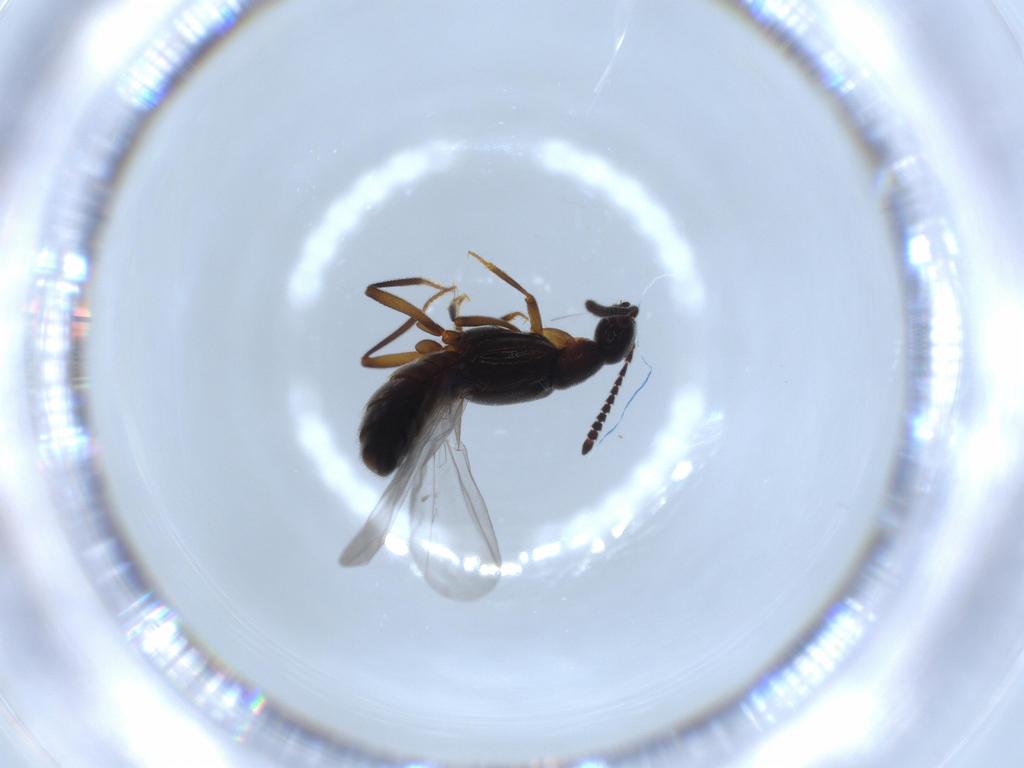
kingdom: Animalia
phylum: Arthropoda
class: Insecta
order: Coleoptera
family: Staphylinidae
